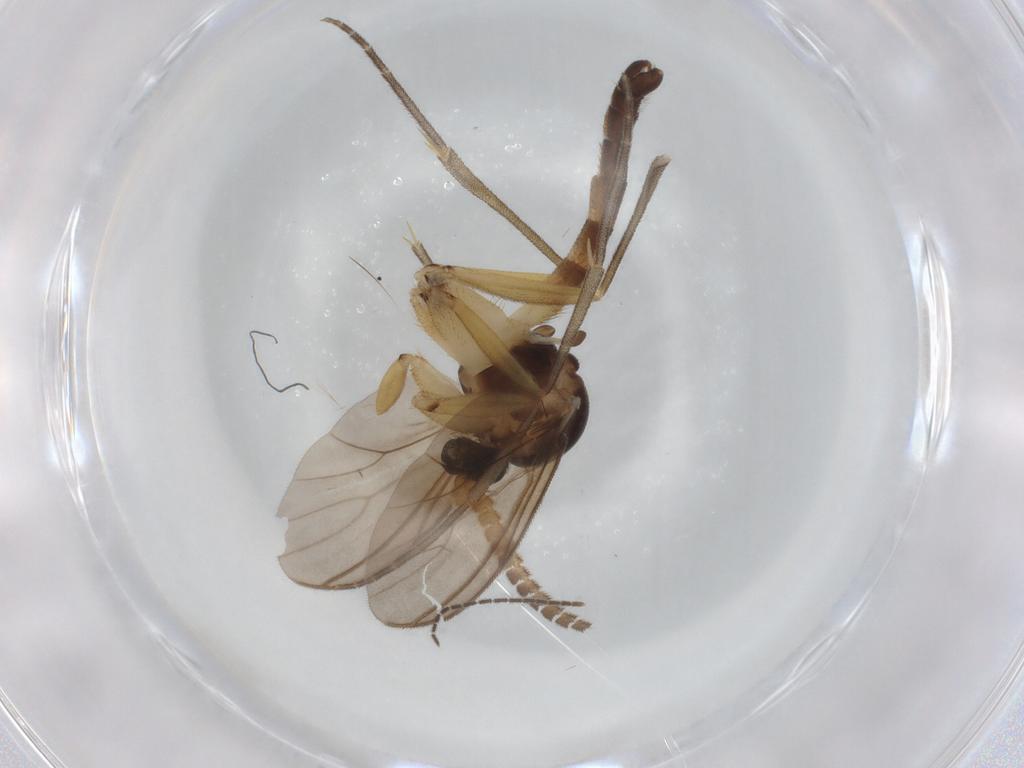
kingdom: Animalia
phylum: Arthropoda
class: Insecta
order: Diptera
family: Mycetophilidae
